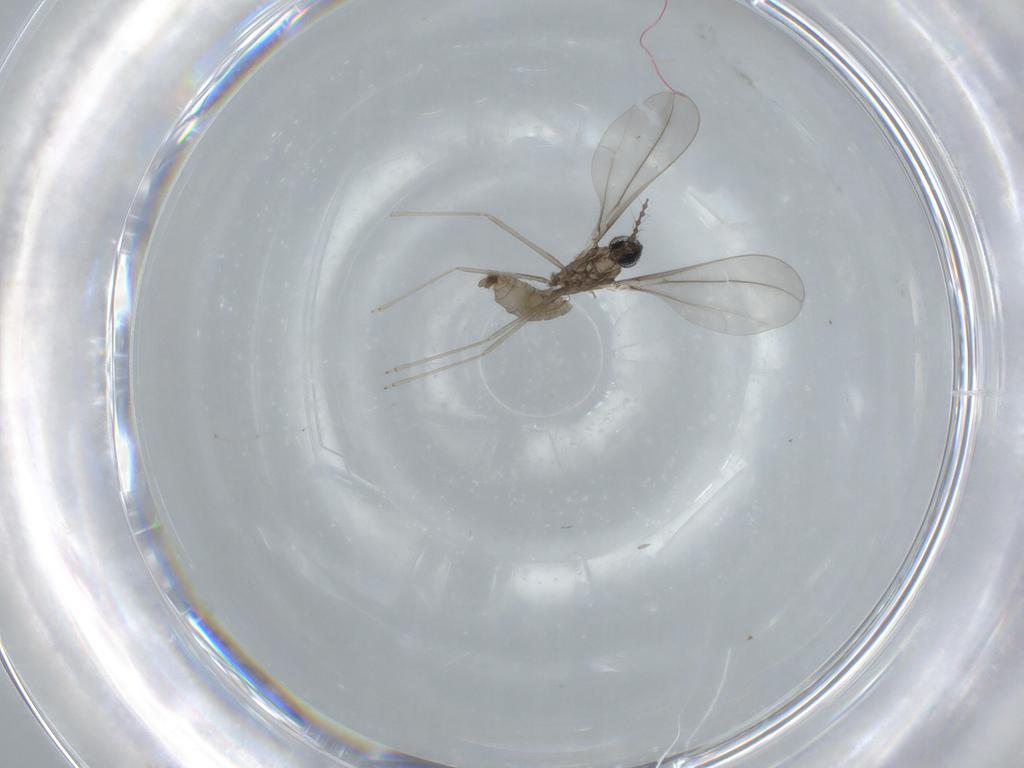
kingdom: Animalia
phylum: Arthropoda
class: Insecta
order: Diptera
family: Cecidomyiidae
